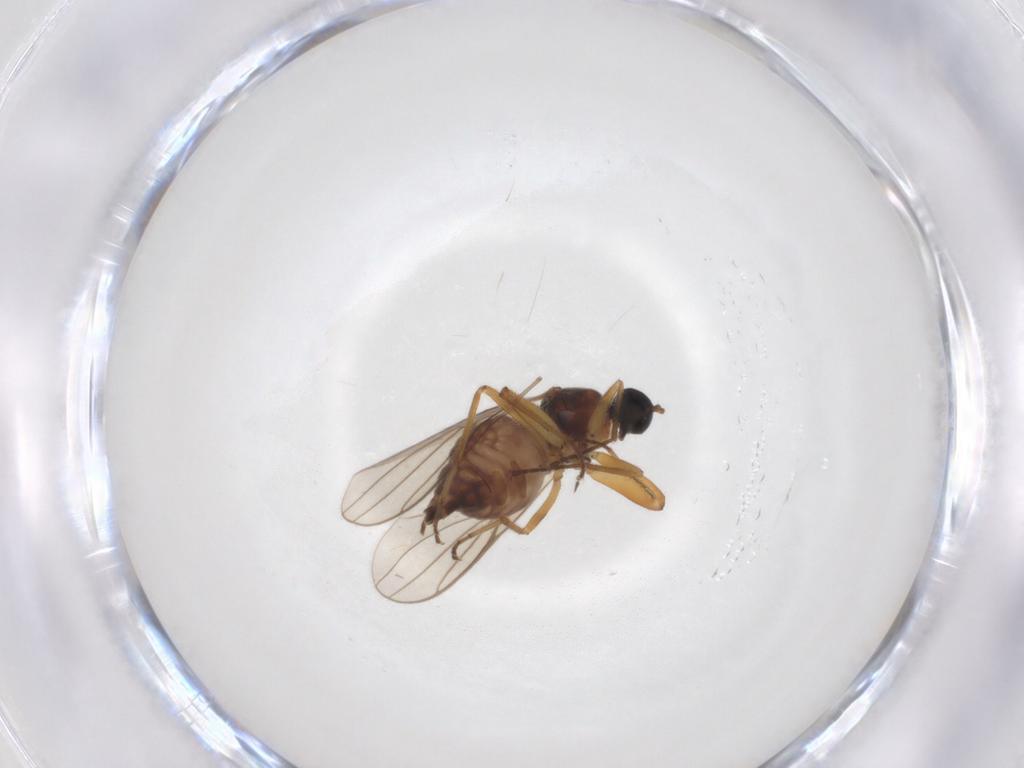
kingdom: Animalia
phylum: Arthropoda
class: Insecta
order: Diptera
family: Hybotidae
